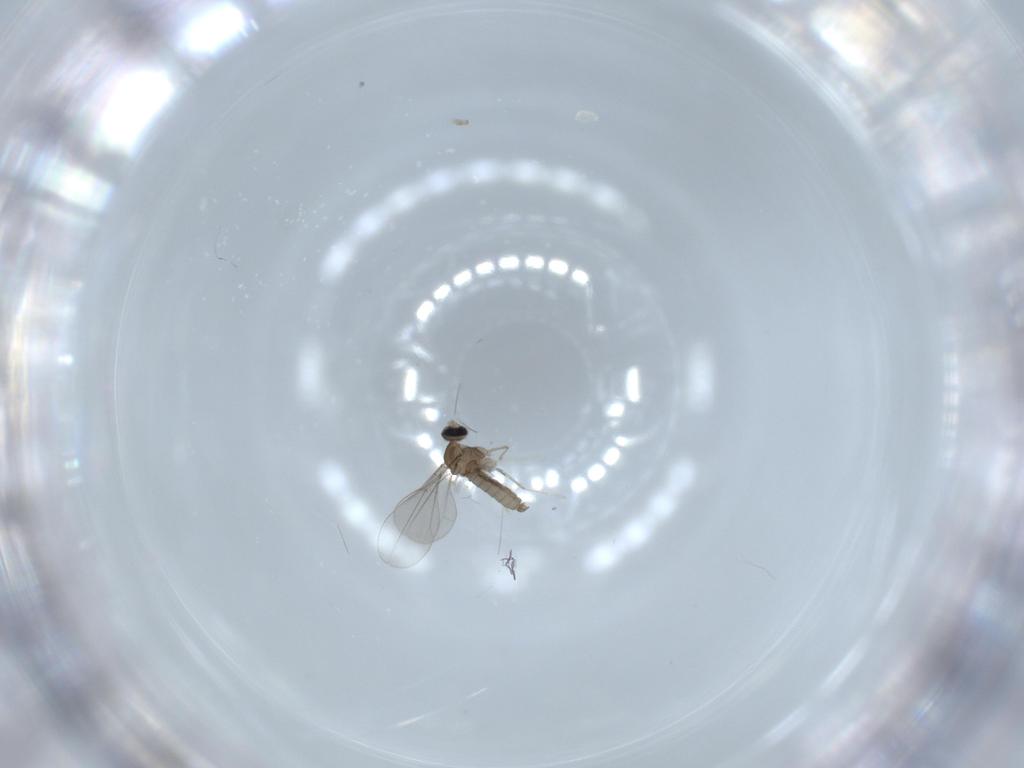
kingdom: Animalia
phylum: Arthropoda
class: Insecta
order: Diptera
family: Cecidomyiidae
